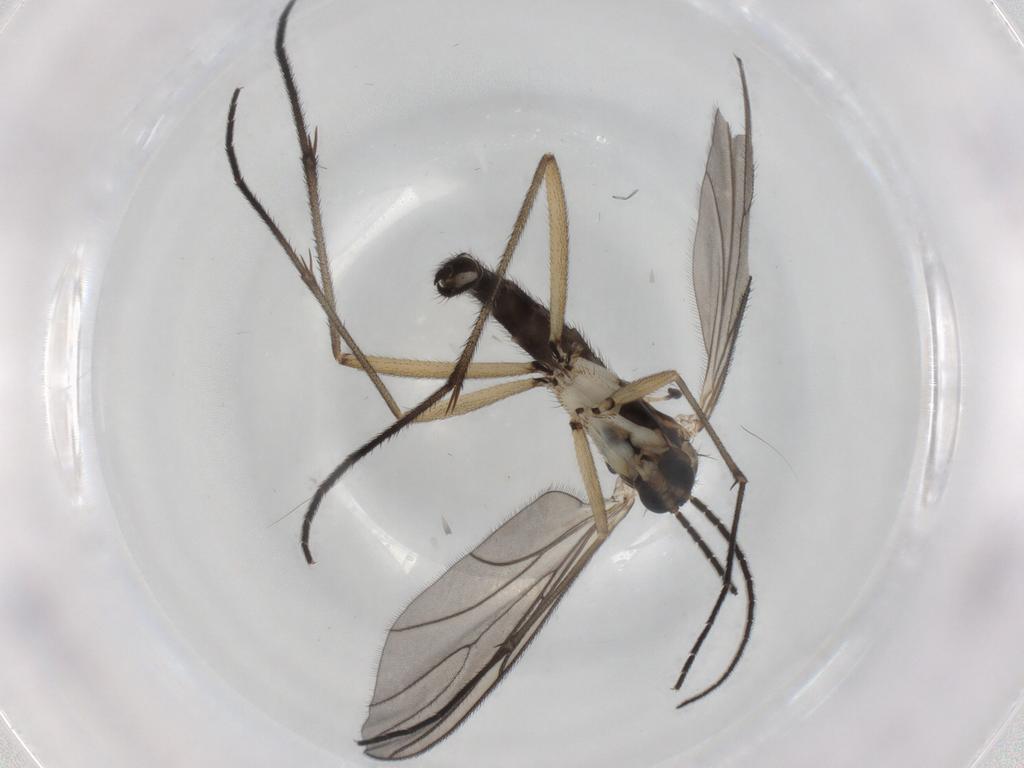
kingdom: Animalia
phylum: Arthropoda
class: Insecta
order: Diptera
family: Sciaridae
